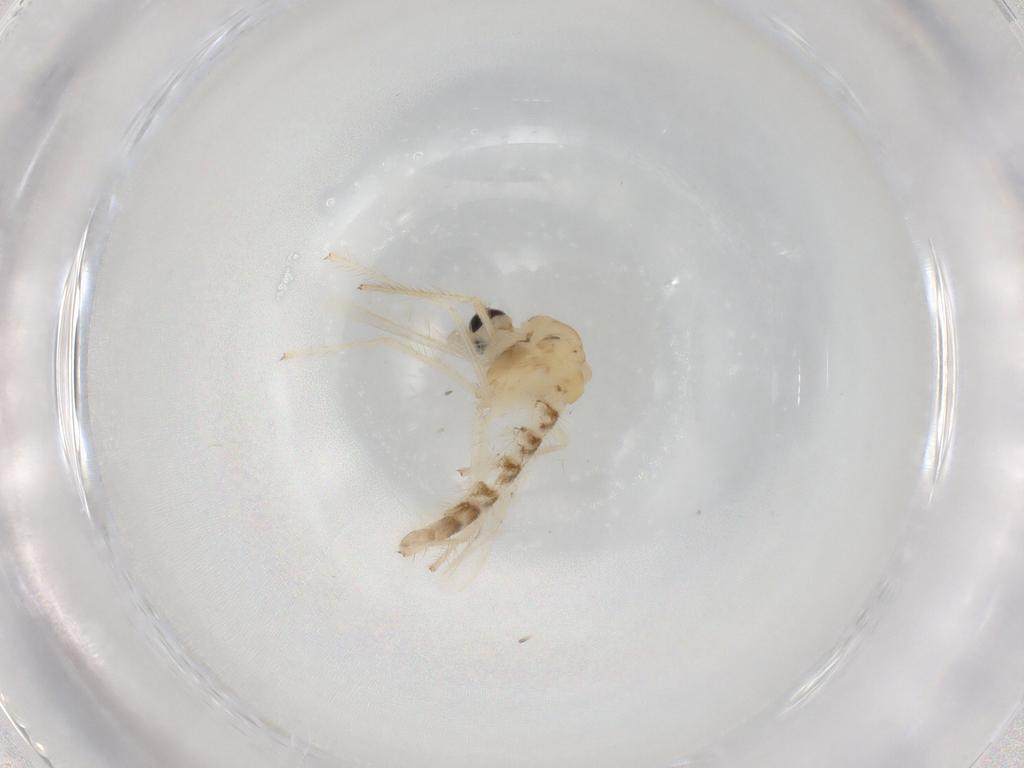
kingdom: Animalia
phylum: Arthropoda
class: Insecta
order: Diptera
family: Chironomidae
